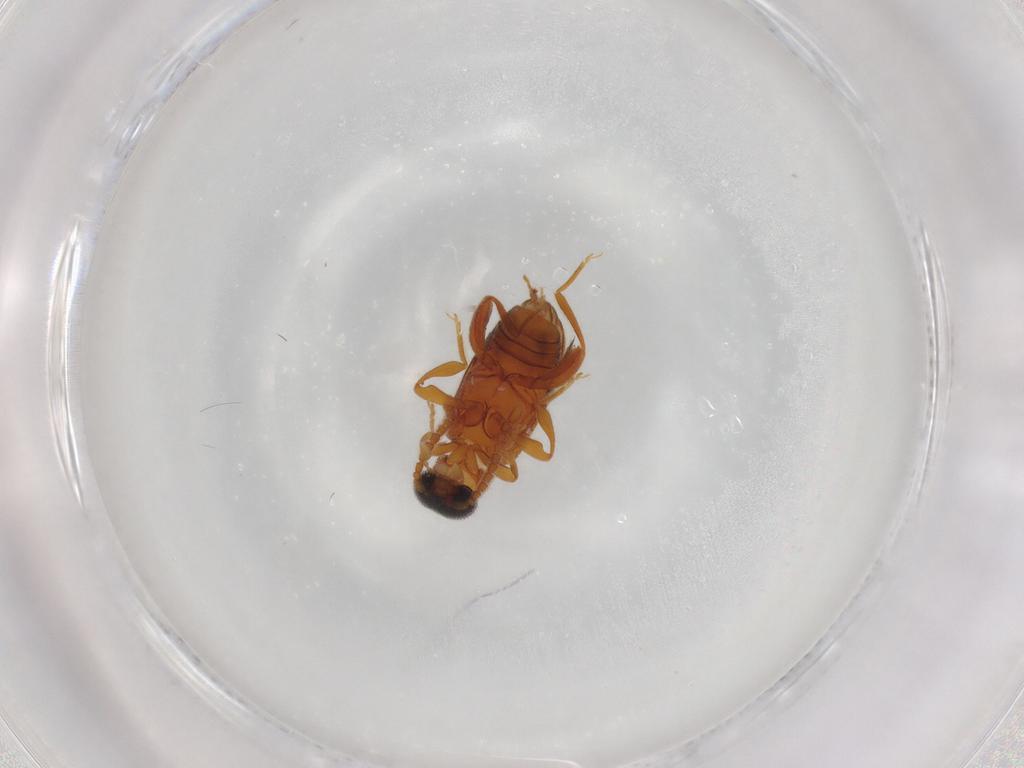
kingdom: Animalia
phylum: Arthropoda
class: Insecta
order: Coleoptera
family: Aderidae
